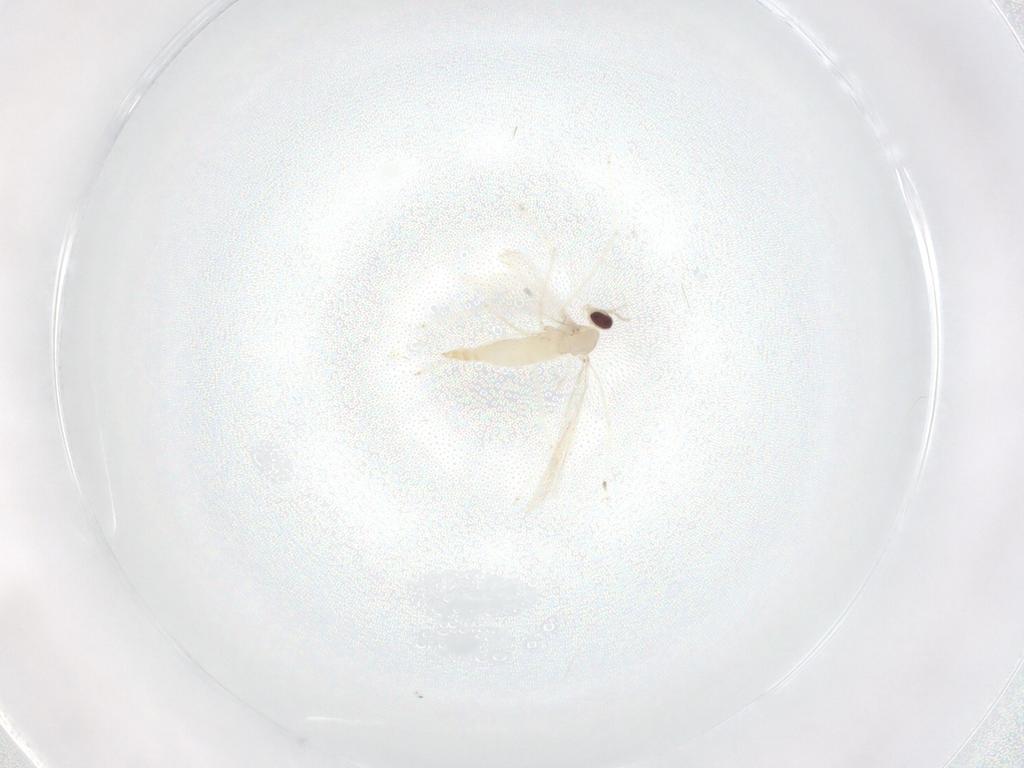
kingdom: Animalia
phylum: Arthropoda
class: Insecta
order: Diptera
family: Cecidomyiidae
